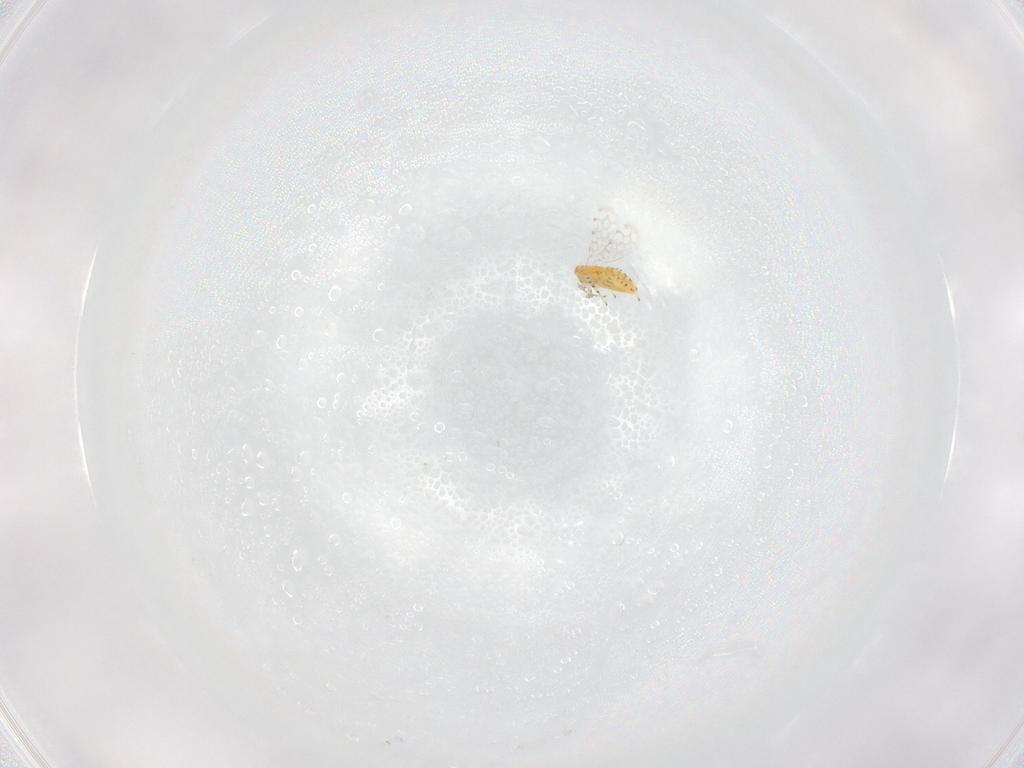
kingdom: Animalia
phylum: Arthropoda
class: Insecta
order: Hymenoptera
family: Aphelinidae
